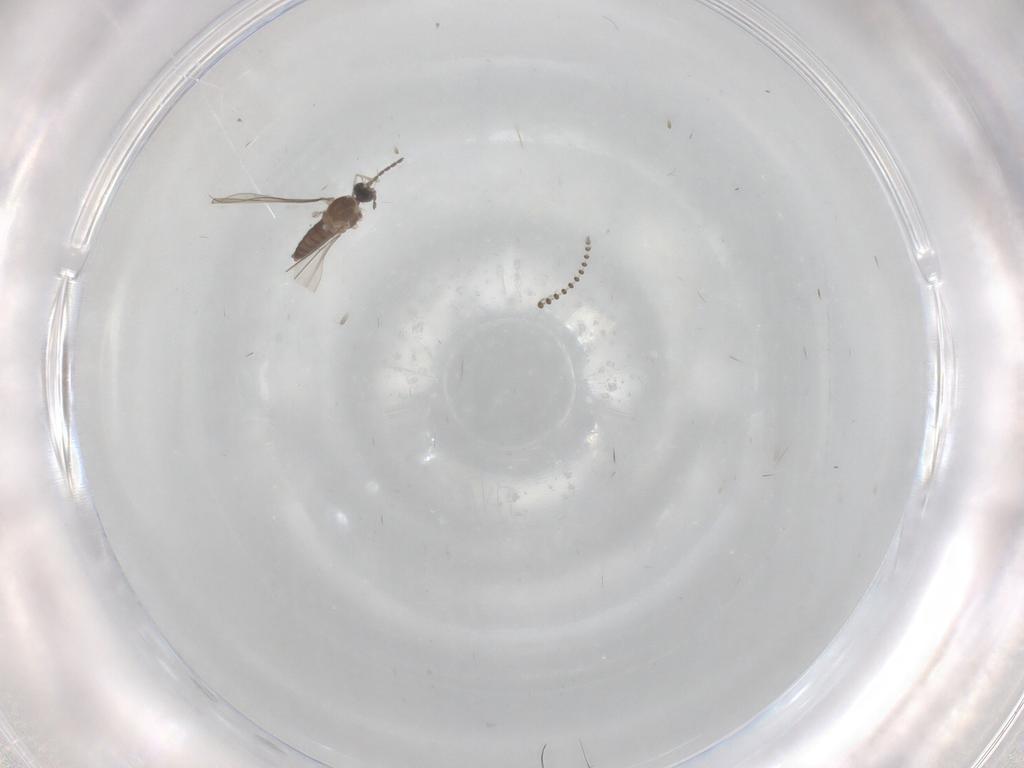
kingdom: Animalia
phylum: Arthropoda
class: Insecta
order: Diptera
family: Psychodidae
